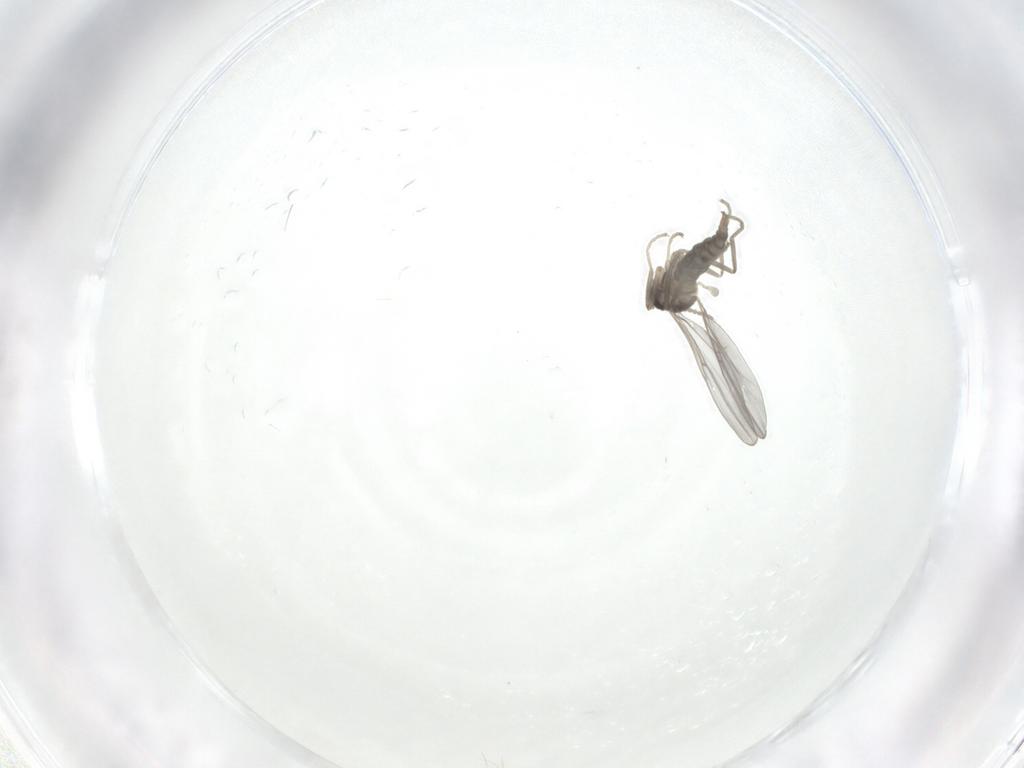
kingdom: Animalia
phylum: Arthropoda
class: Insecta
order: Diptera
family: Cecidomyiidae
